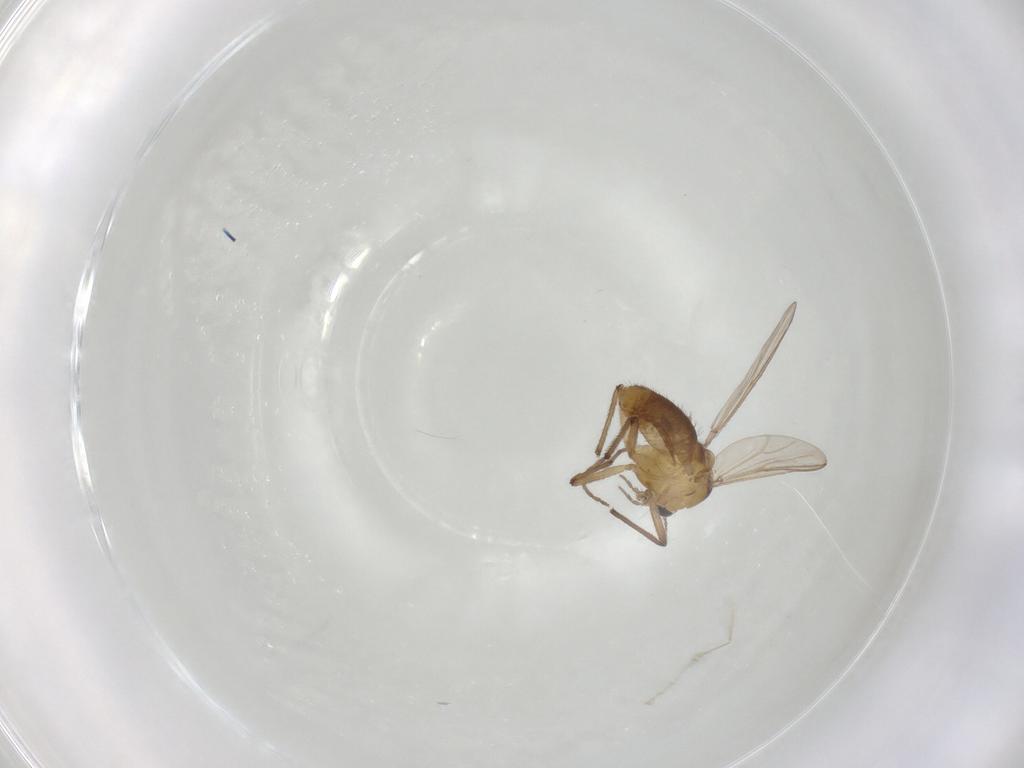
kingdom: Animalia
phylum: Arthropoda
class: Insecta
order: Diptera
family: Chironomidae
